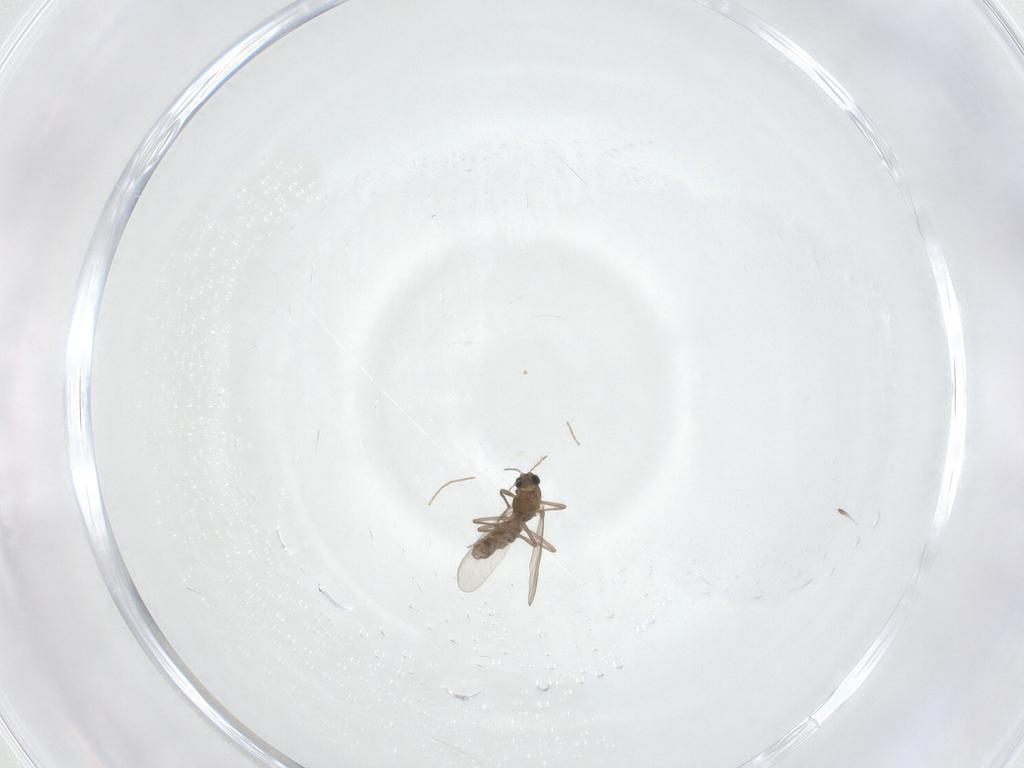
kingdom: Animalia
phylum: Arthropoda
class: Insecta
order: Diptera
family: Chironomidae
